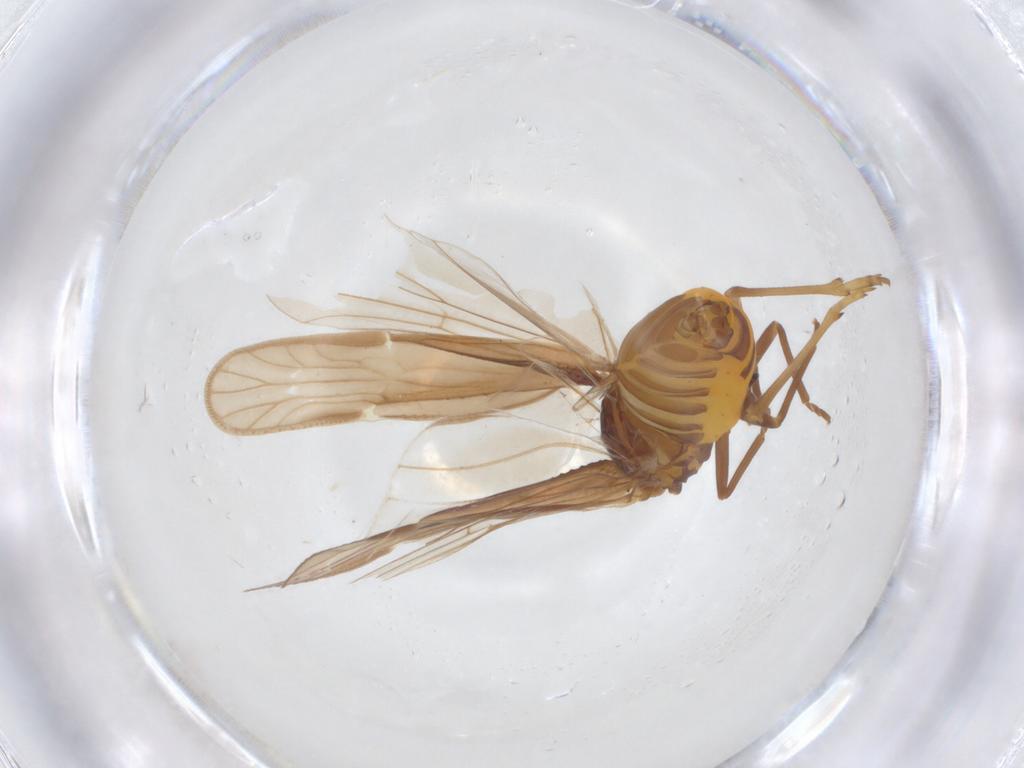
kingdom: Animalia
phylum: Arthropoda
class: Insecta
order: Hemiptera
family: Meenoplidae
